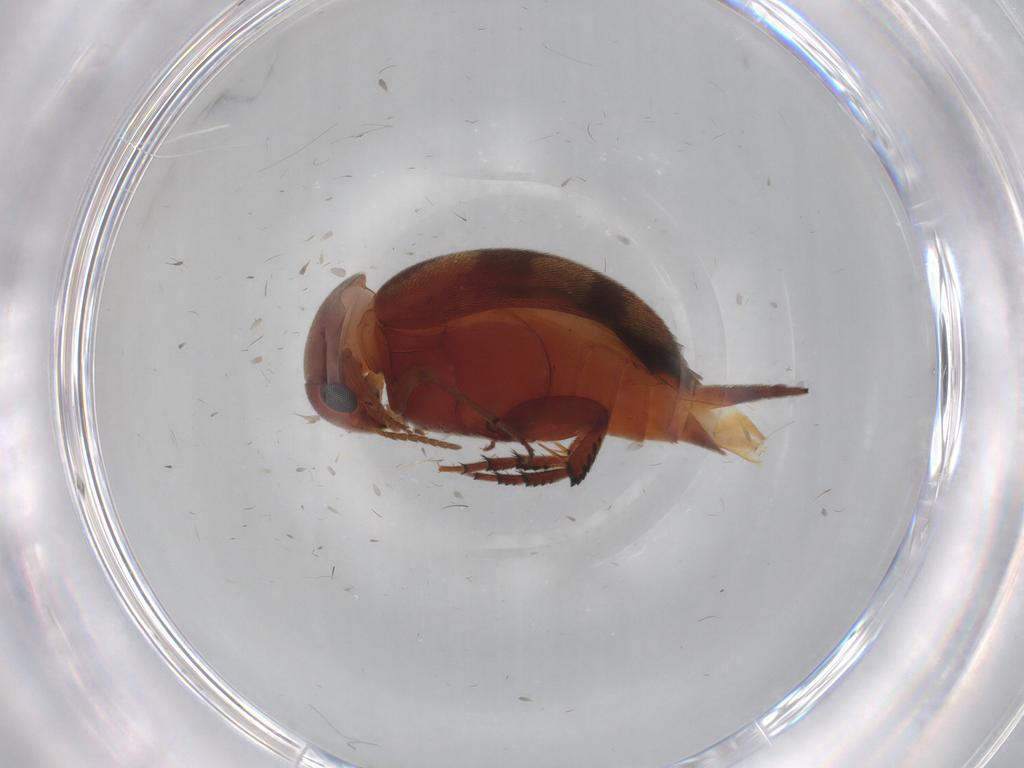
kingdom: Animalia
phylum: Arthropoda
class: Insecta
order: Coleoptera
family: Mordellidae
